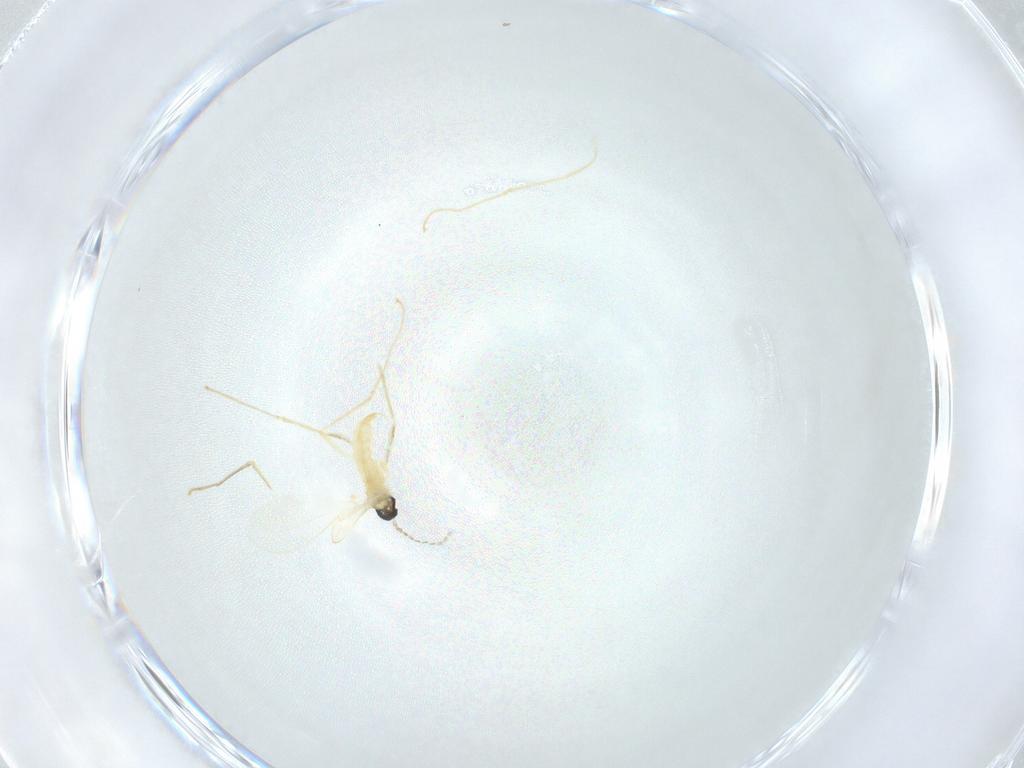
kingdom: Animalia
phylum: Arthropoda
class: Insecta
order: Diptera
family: Cecidomyiidae
